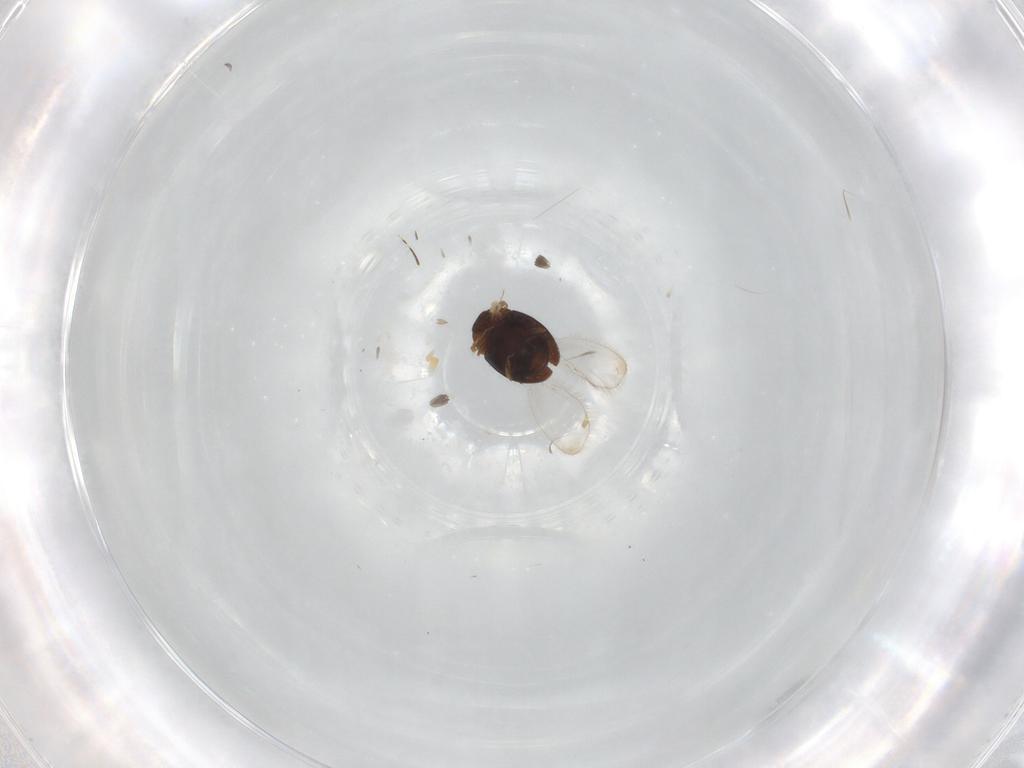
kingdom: Animalia
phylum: Arthropoda
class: Insecta
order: Coleoptera
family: Corylophidae
